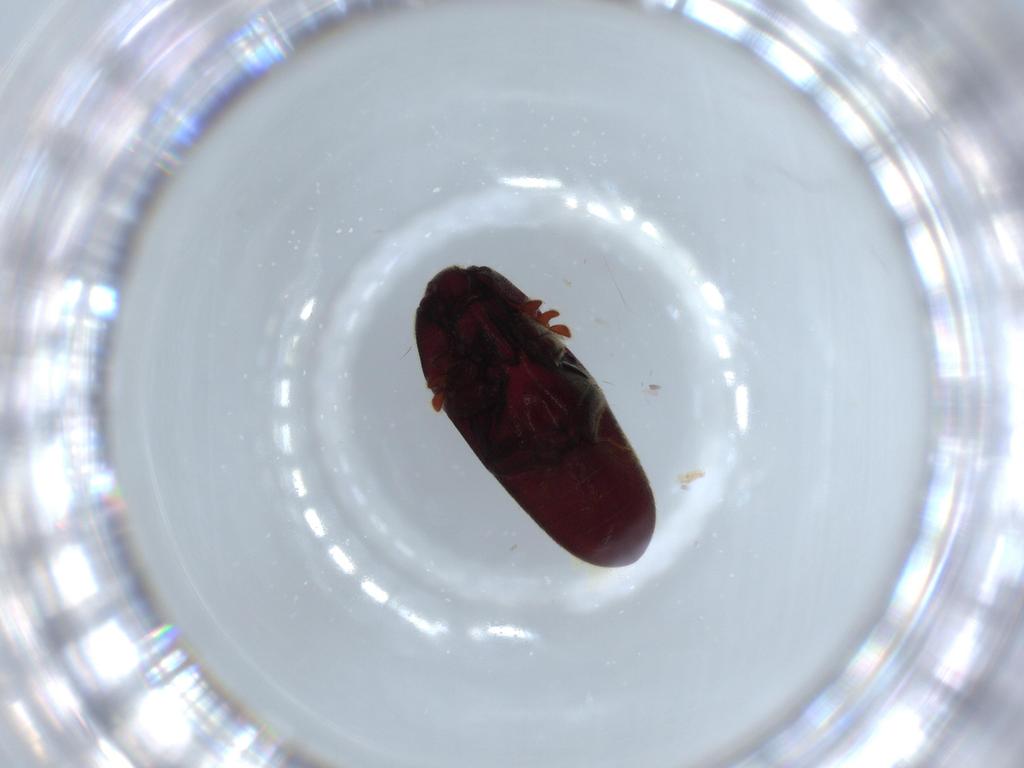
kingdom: Animalia
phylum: Arthropoda
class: Insecta
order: Coleoptera
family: Throscidae
